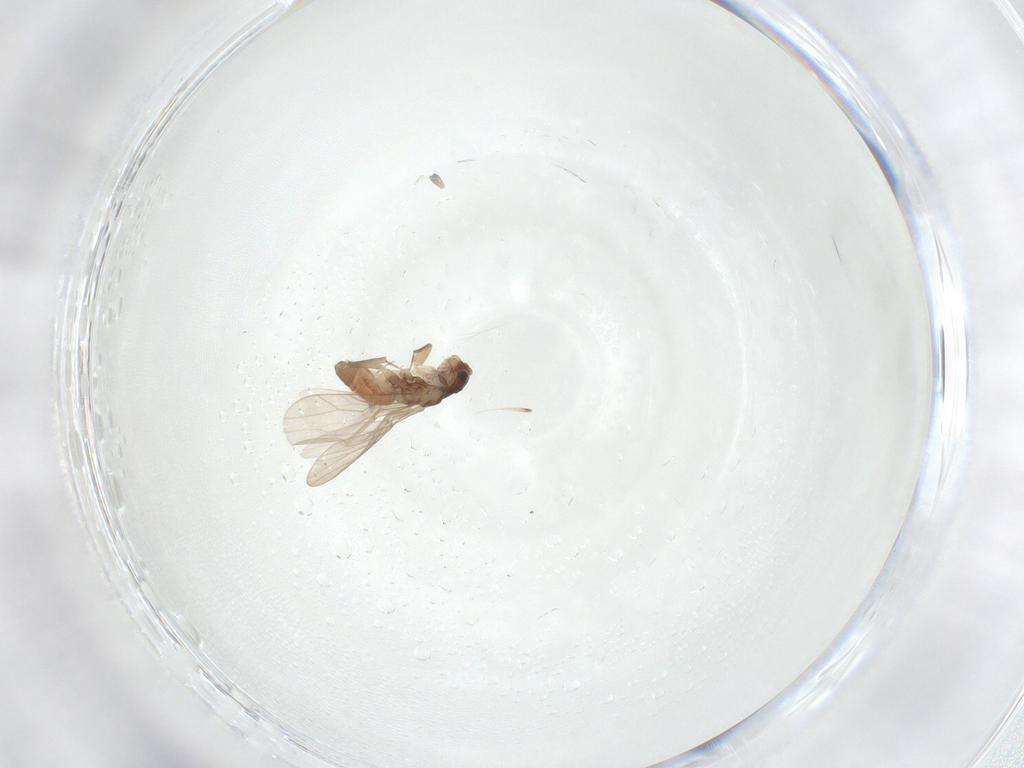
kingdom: Animalia
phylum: Arthropoda
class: Insecta
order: Psocodea
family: Lepidopsocidae
